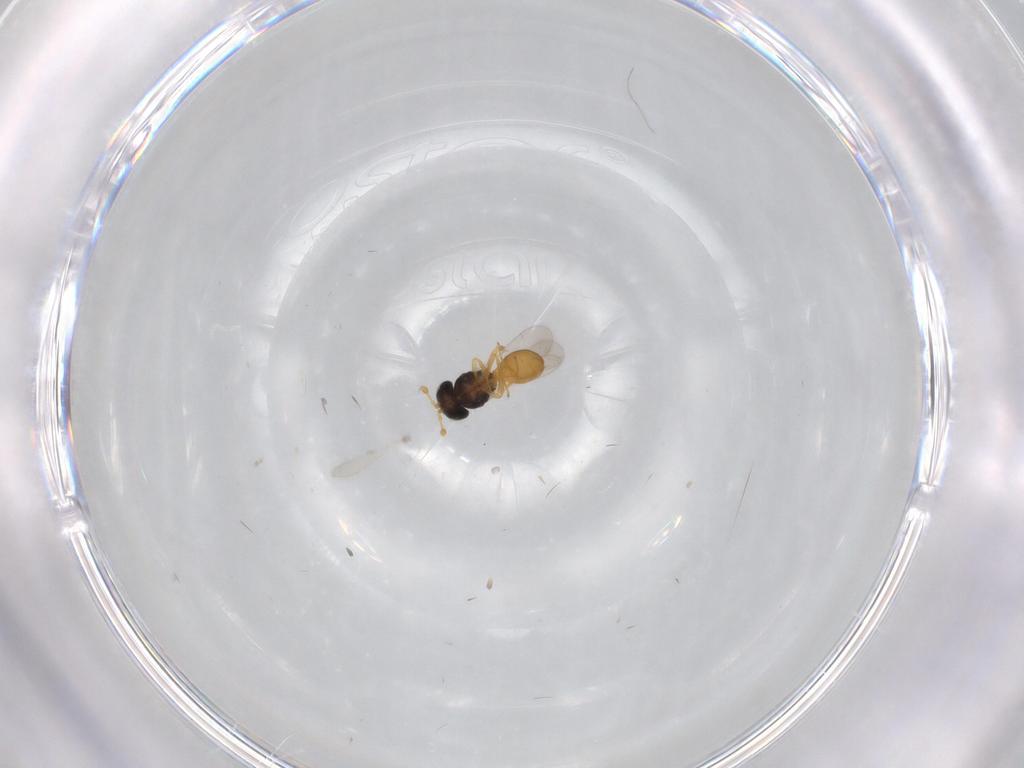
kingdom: Animalia
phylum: Arthropoda
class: Insecta
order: Hymenoptera
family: Scelionidae
